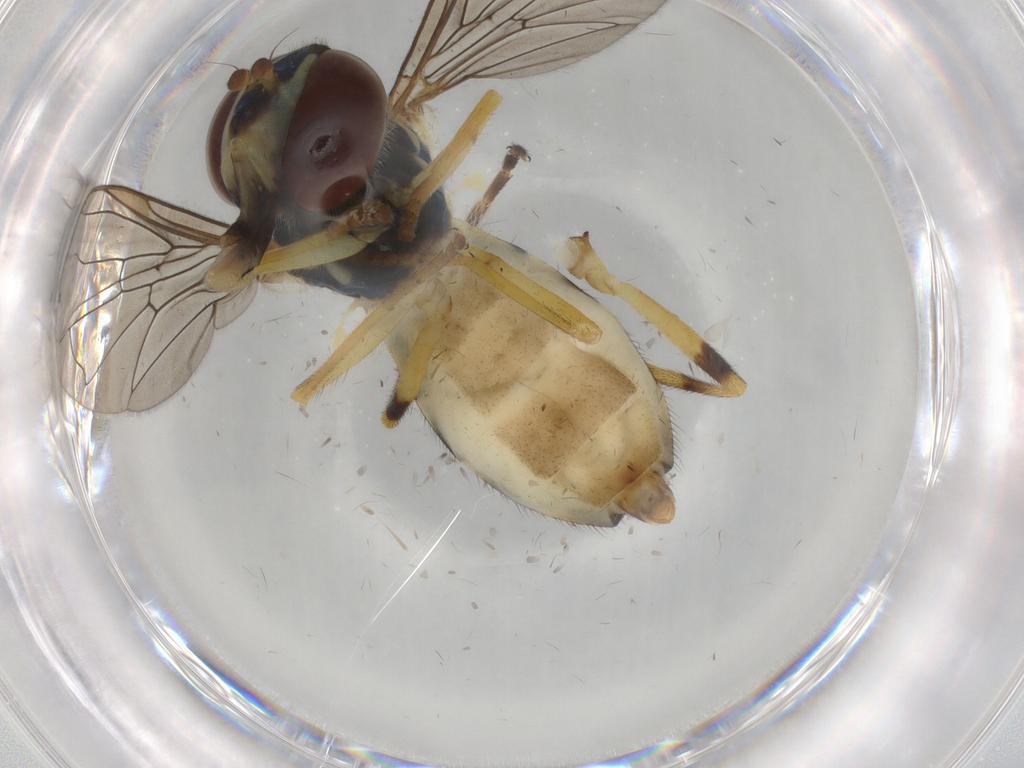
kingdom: Animalia
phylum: Arthropoda
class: Insecta
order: Diptera
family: Syrphidae
